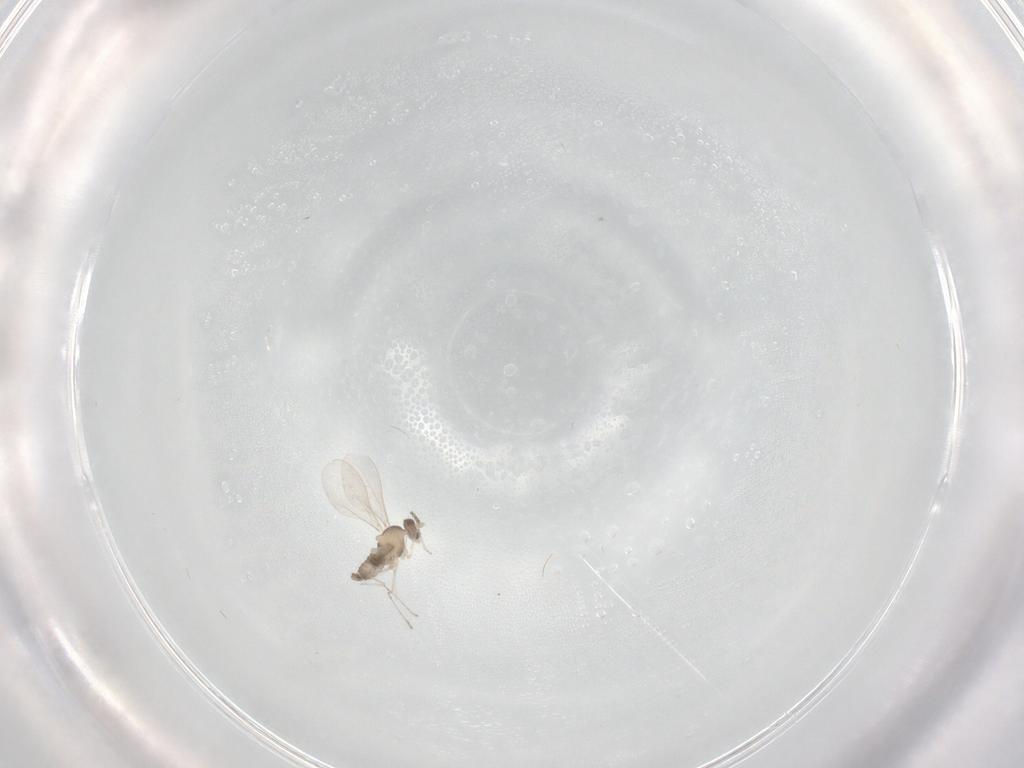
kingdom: Animalia
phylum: Arthropoda
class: Insecta
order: Diptera
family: Cecidomyiidae
